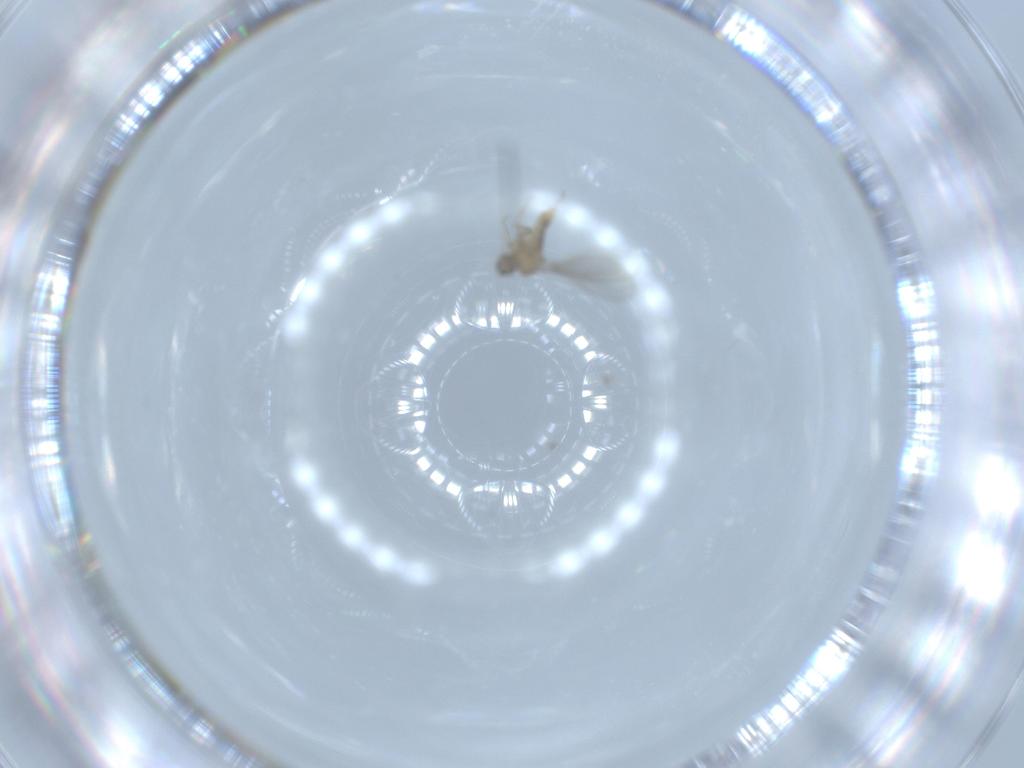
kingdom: Animalia
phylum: Arthropoda
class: Insecta
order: Diptera
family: Cecidomyiidae
